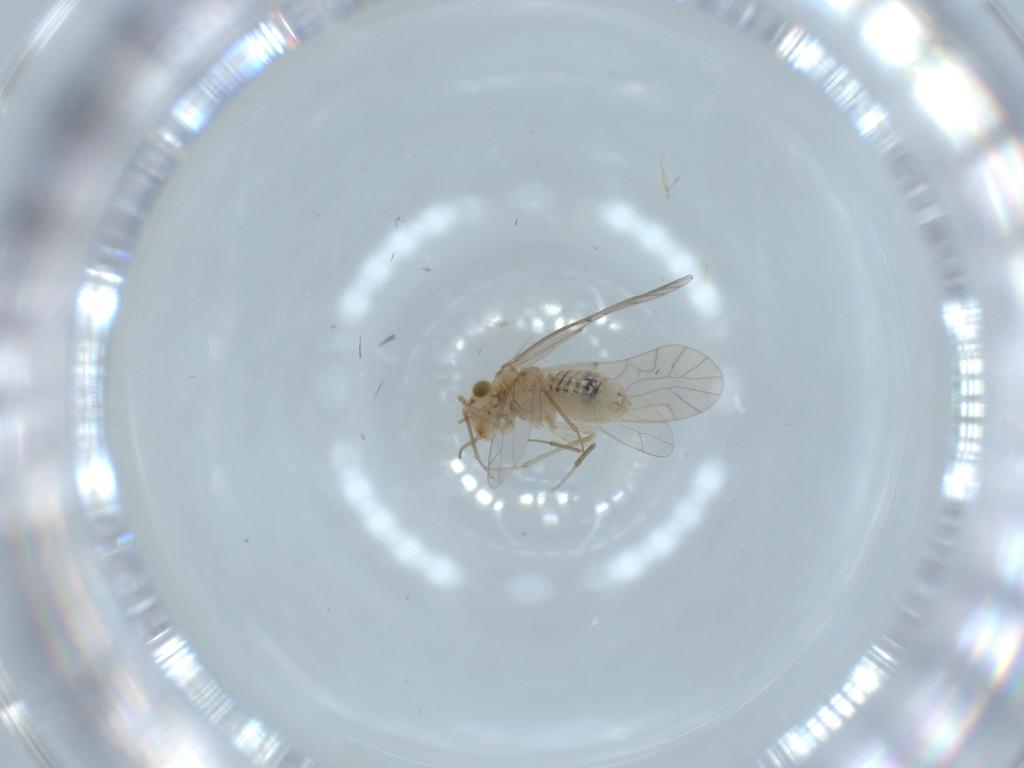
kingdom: Animalia
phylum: Arthropoda
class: Insecta
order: Psocodea
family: Lachesillidae
